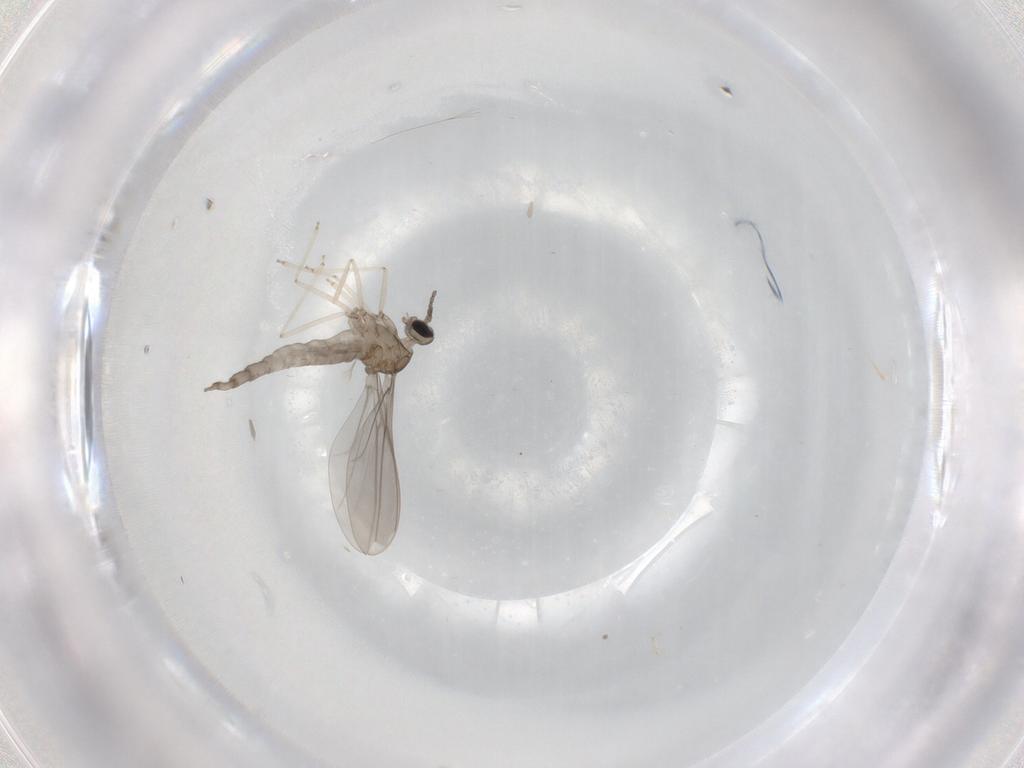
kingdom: Animalia
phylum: Arthropoda
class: Insecta
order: Diptera
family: Cecidomyiidae
